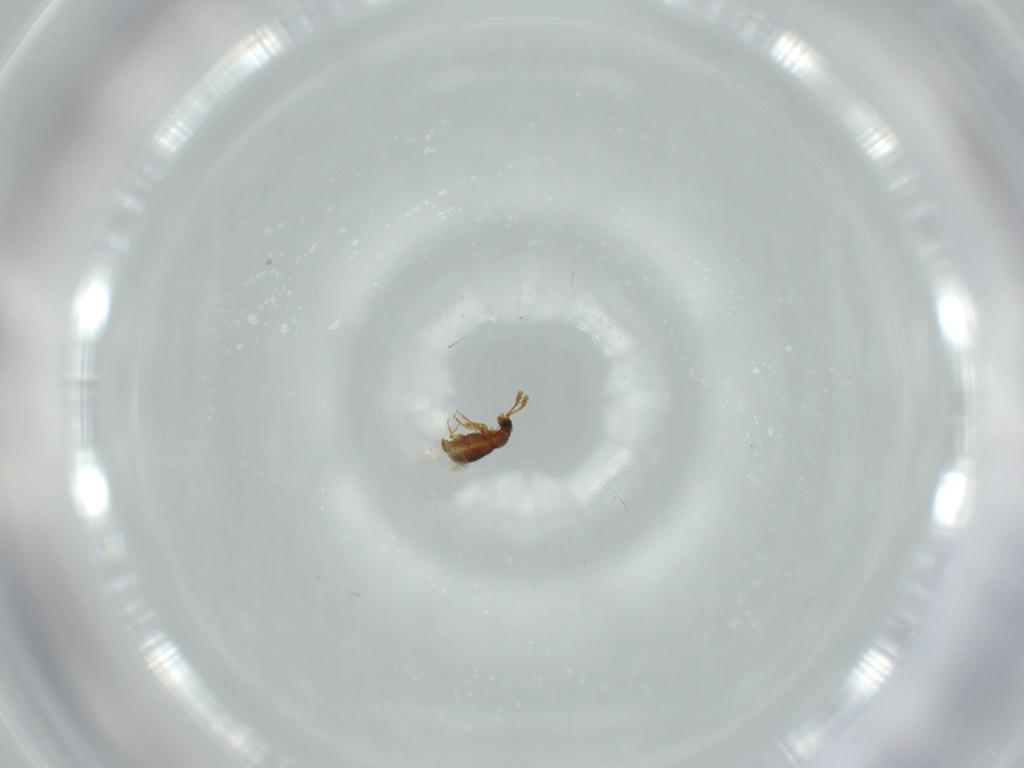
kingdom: Animalia
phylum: Arthropoda
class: Insecta
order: Coleoptera
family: Staphylinidae
